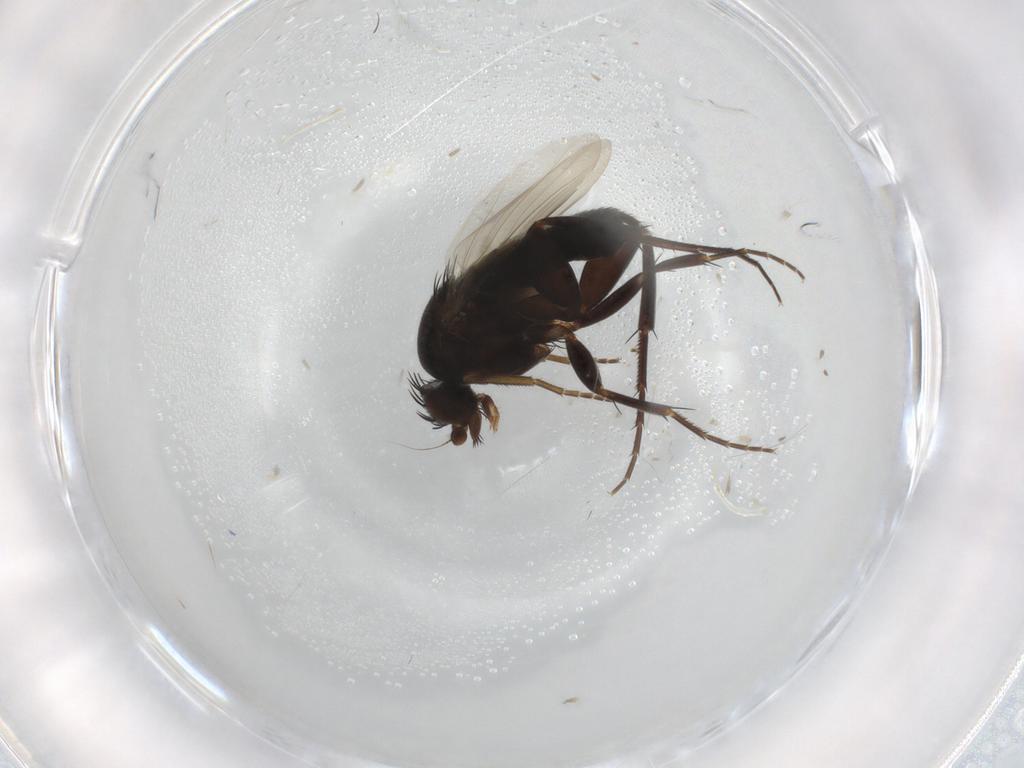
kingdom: Animalia
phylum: Arthropoda
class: Insecta
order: Diptera
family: Phoridae
